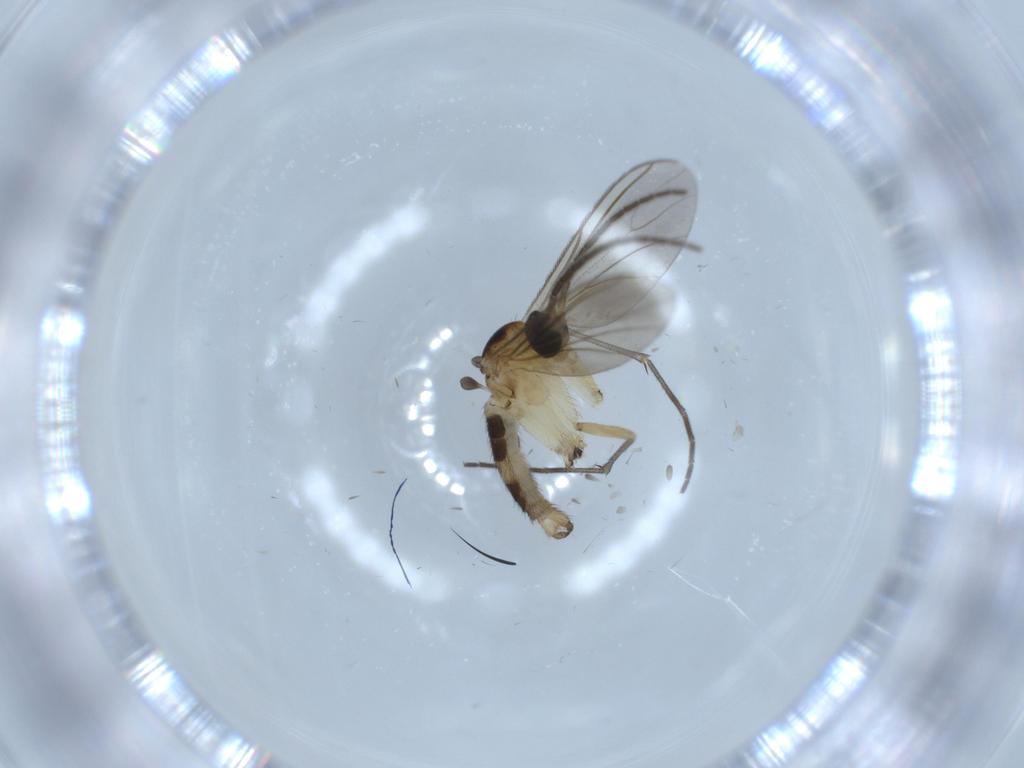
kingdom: Animalia
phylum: Arthropoda
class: Insecta
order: Diptera
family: Sciaridae
